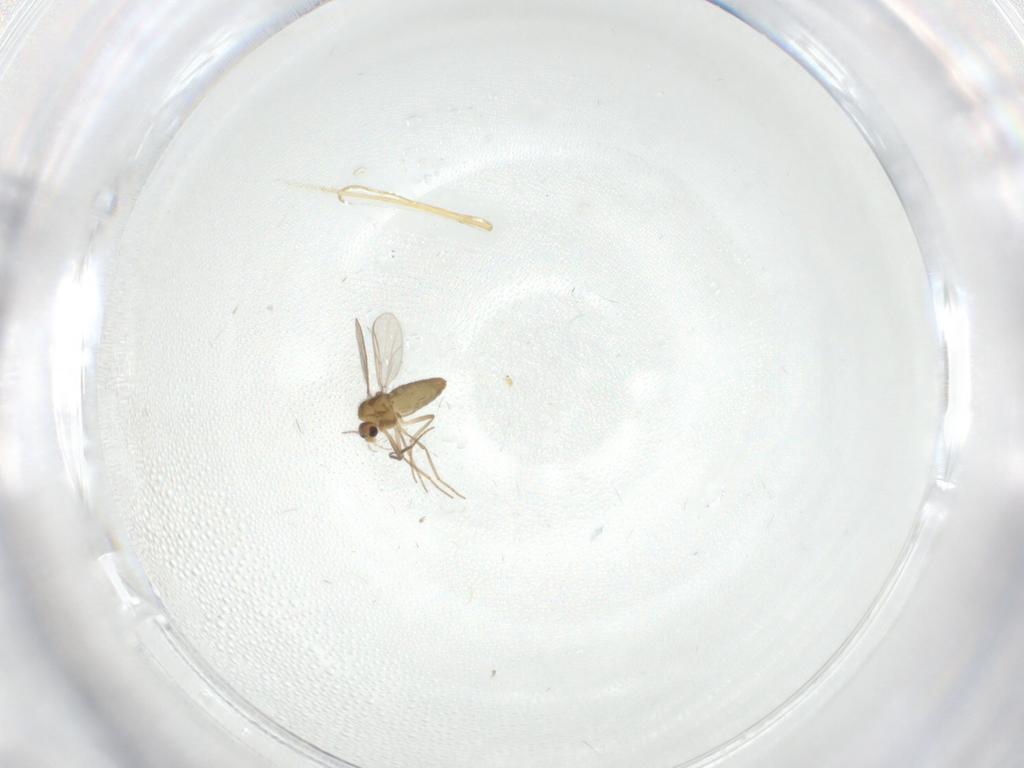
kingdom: Animalia
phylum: Arthropoda
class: Insecta
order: Diptera
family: Chironomidae
